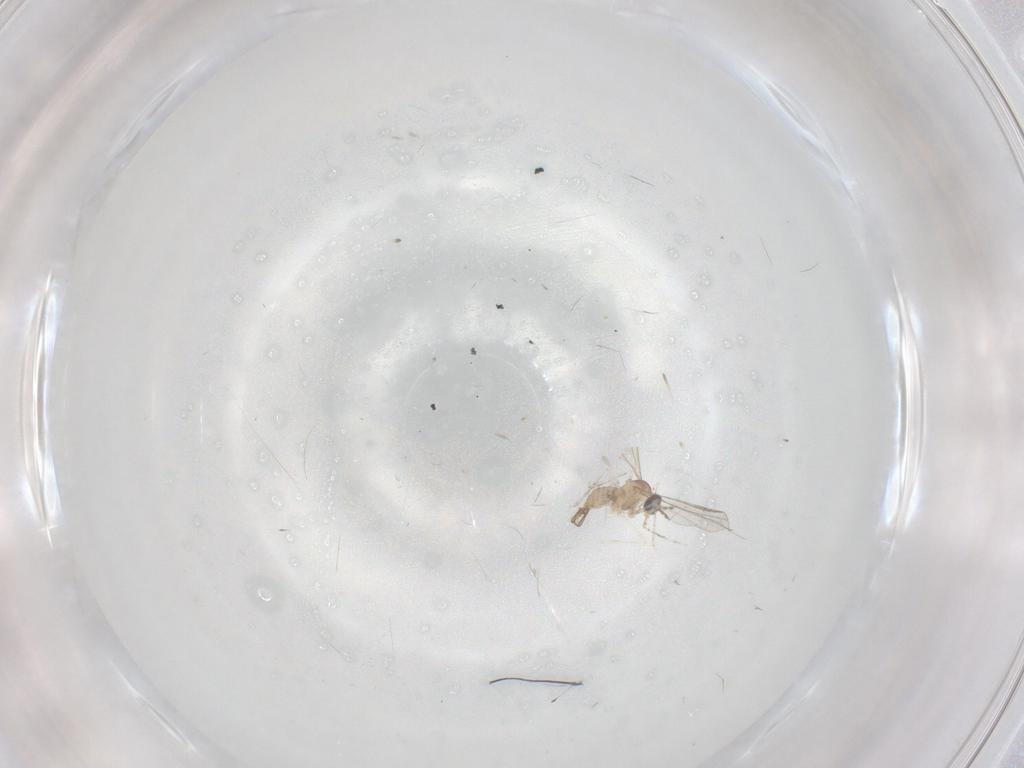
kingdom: Animalia
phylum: Arthropoda
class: Insecta
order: Diptera
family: Cecidomyiidae
